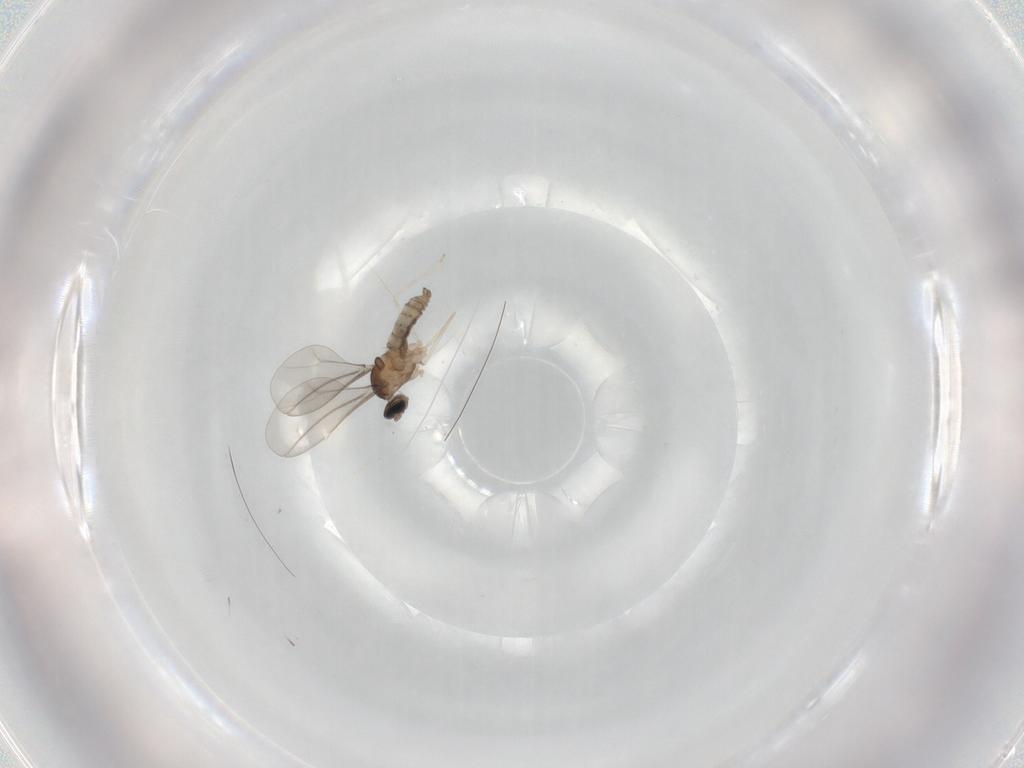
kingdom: Animalia
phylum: Arthropoda
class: Insecta
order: Diptera
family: Cecidomyiidae
